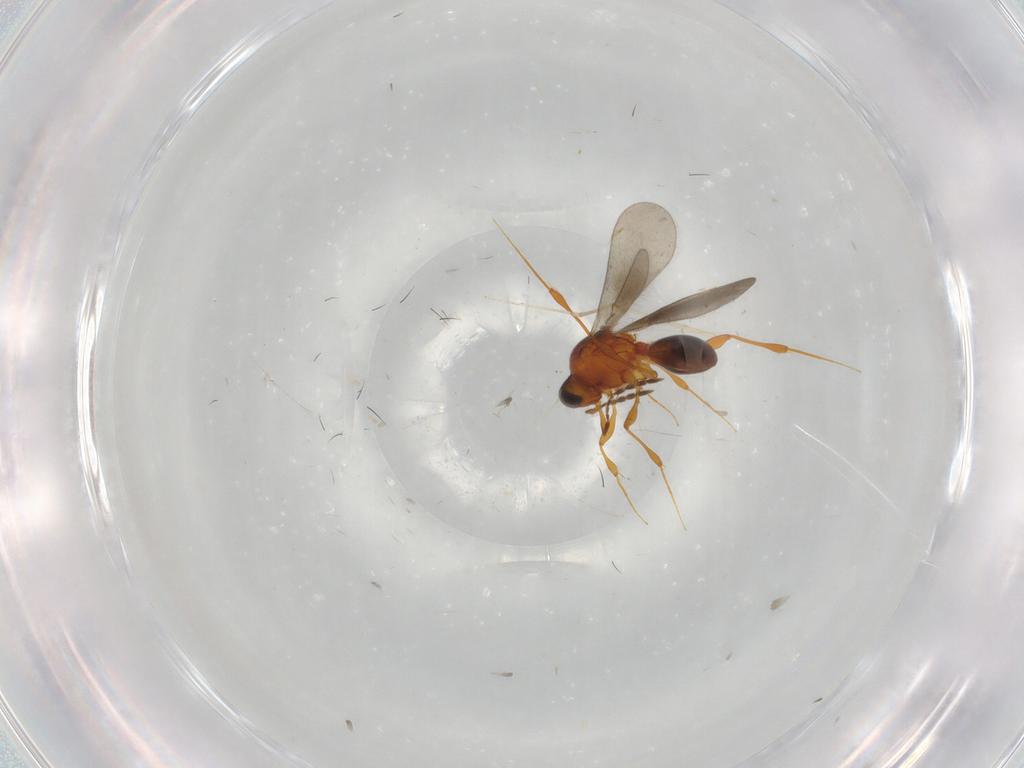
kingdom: Animalia
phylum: Arthropoda
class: Insecta
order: Hymenoptera
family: Platygastridae
